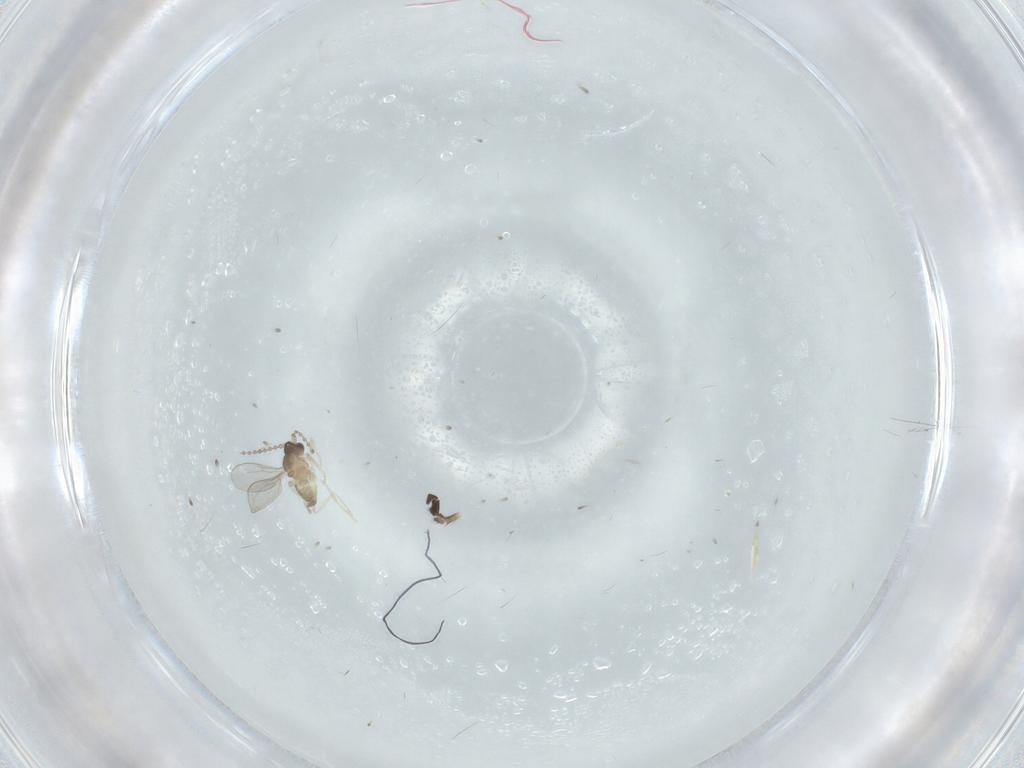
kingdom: Animalia
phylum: Arthropoda
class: Insecta
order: Diptera
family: Cecidomyiidae
